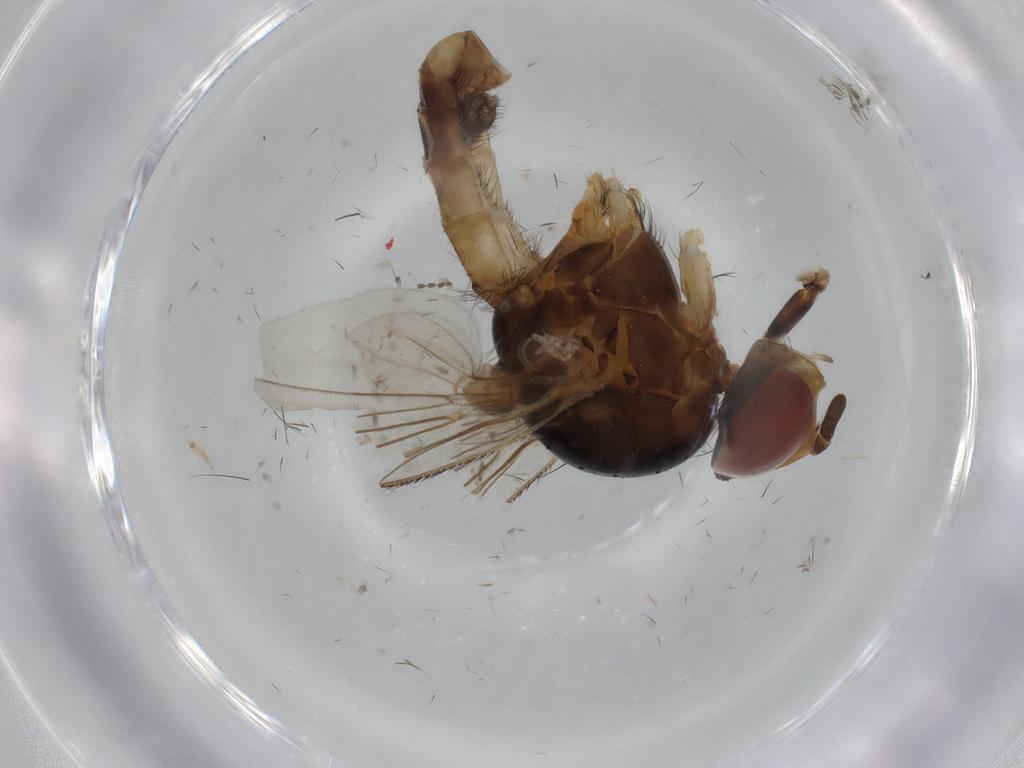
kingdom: Animalia
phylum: Arthropoda
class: Insecta
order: Diptera
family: Anthomyiidae
